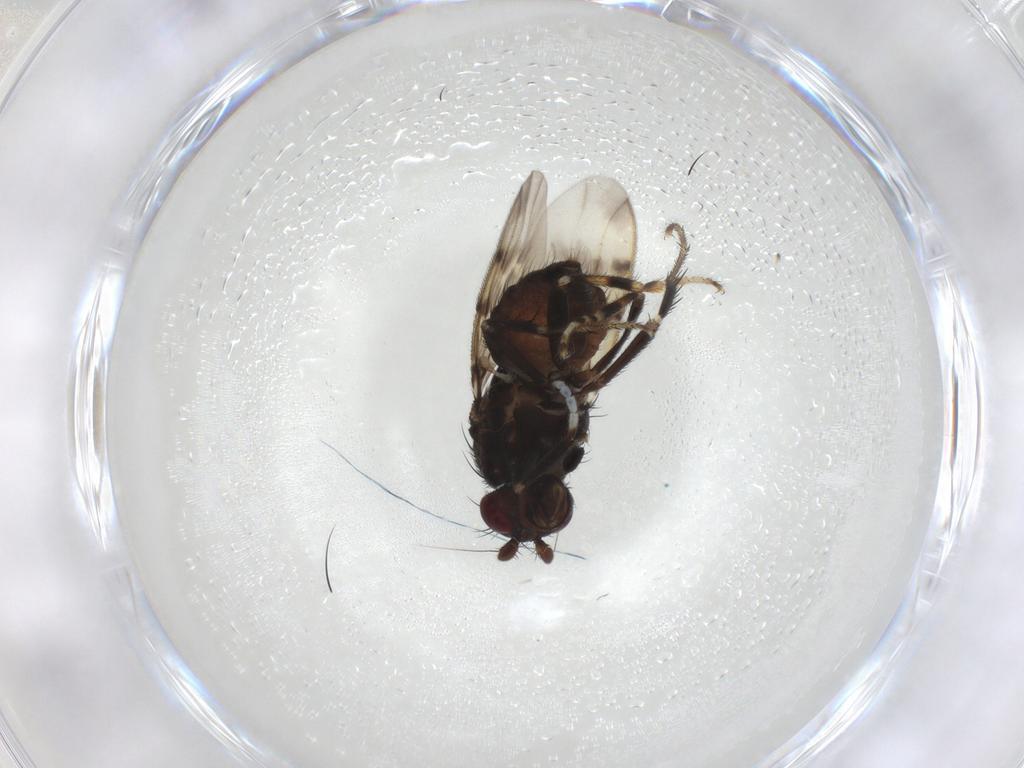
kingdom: Animalia
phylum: Arthropoda
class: Insecta
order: Diptera
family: Sphaeroceridae
